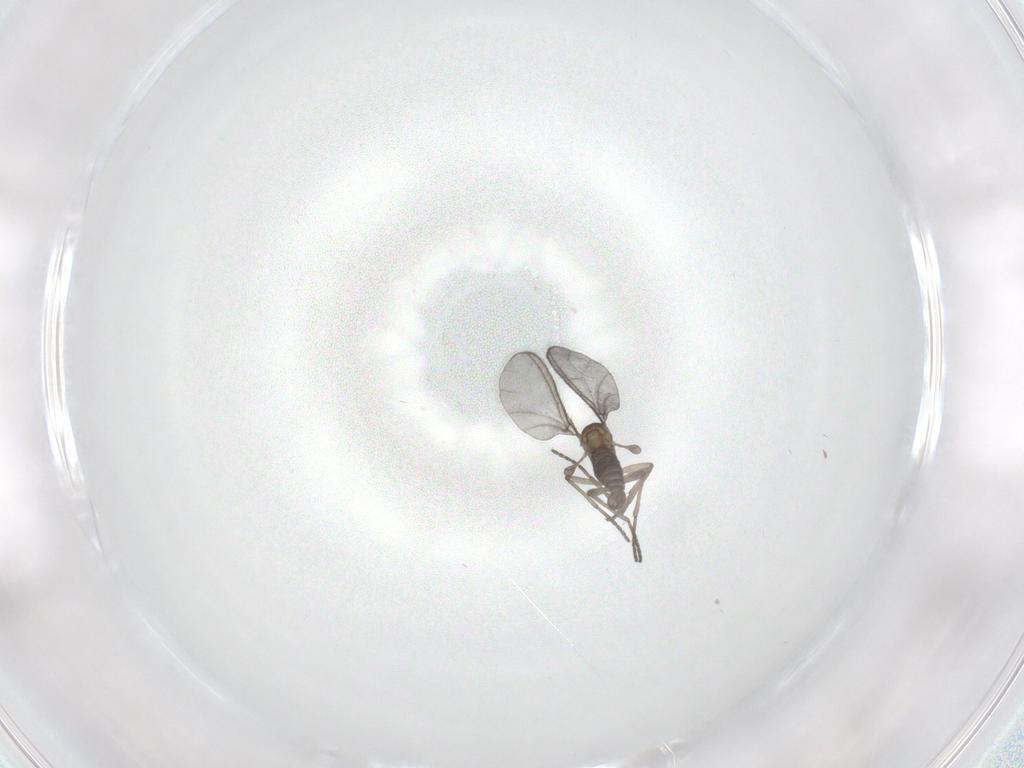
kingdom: Animalia
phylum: Arthropoda
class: Insecta
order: Diptera
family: Sciaridae
